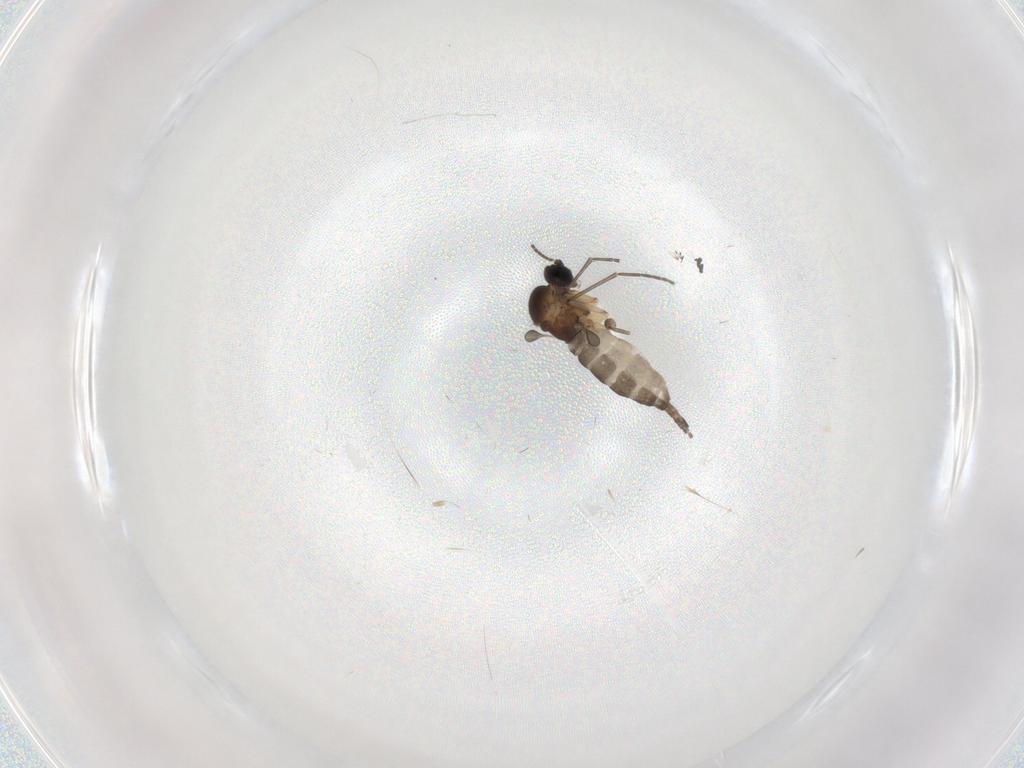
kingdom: Animalia
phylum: Arthropoda
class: Insecta
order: Diptera
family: Sciaridae
